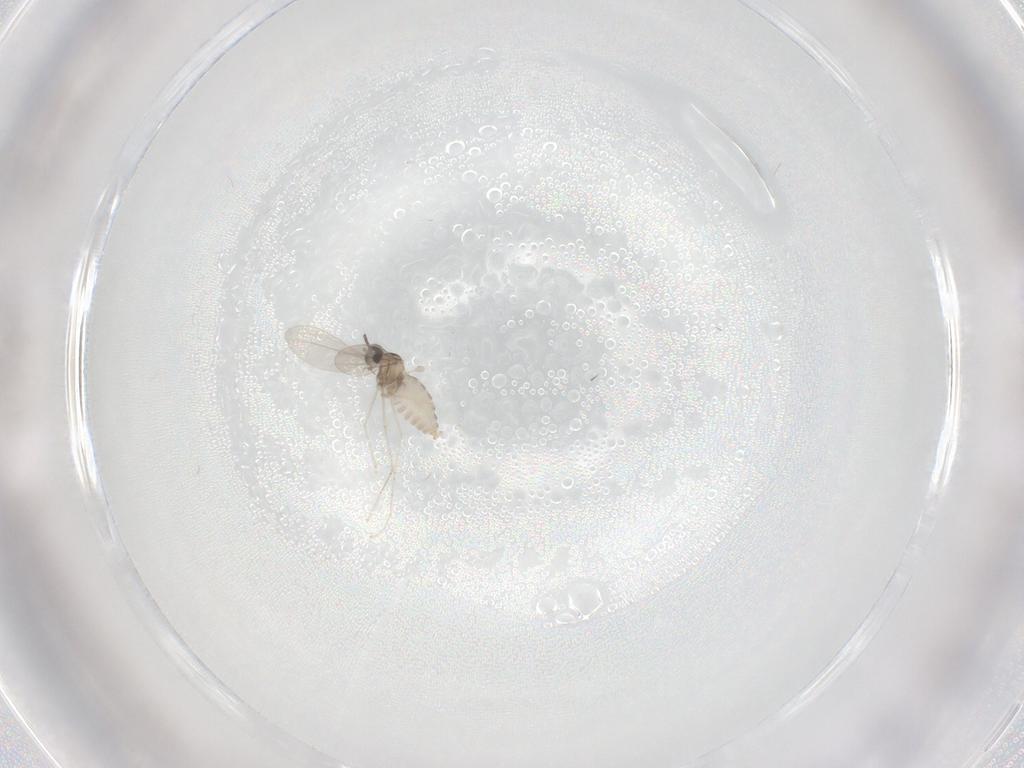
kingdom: Animalia
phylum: Arthropoda
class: Insecta
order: Diptera
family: Cecidomyiidae
